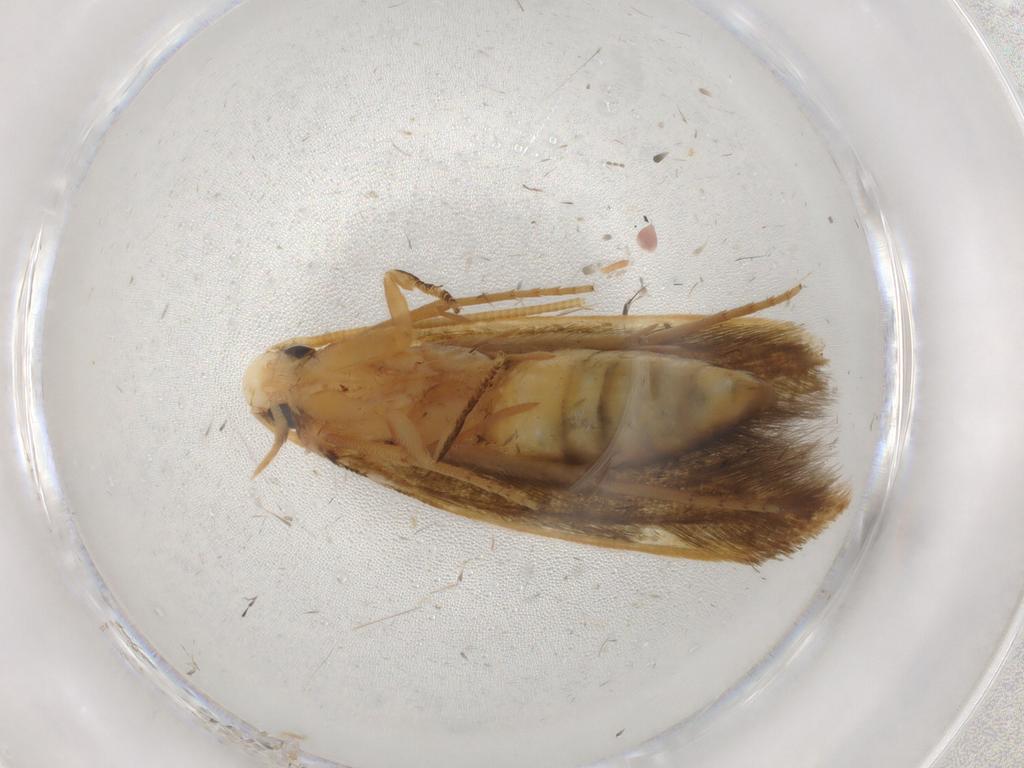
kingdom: Animalia
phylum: Arthropoda
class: Insecta
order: Lepidoptera
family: Tineidae
